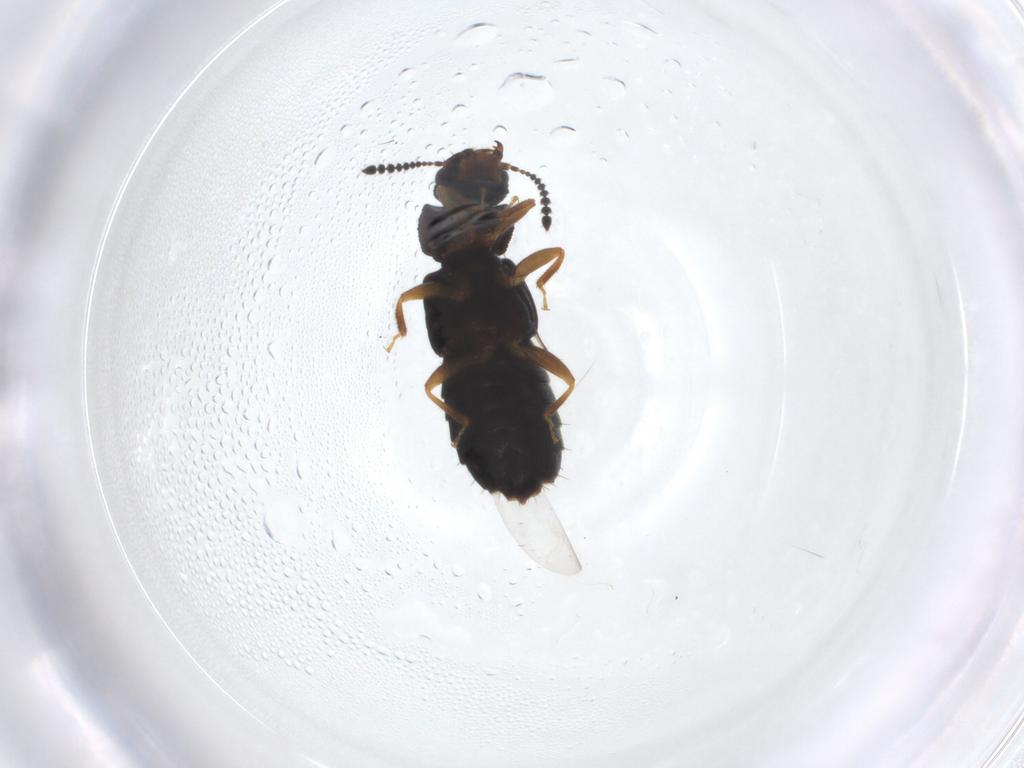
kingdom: Animalia
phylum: Arthropoda
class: Insecta
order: Coleoptera
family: Staphylinidae
